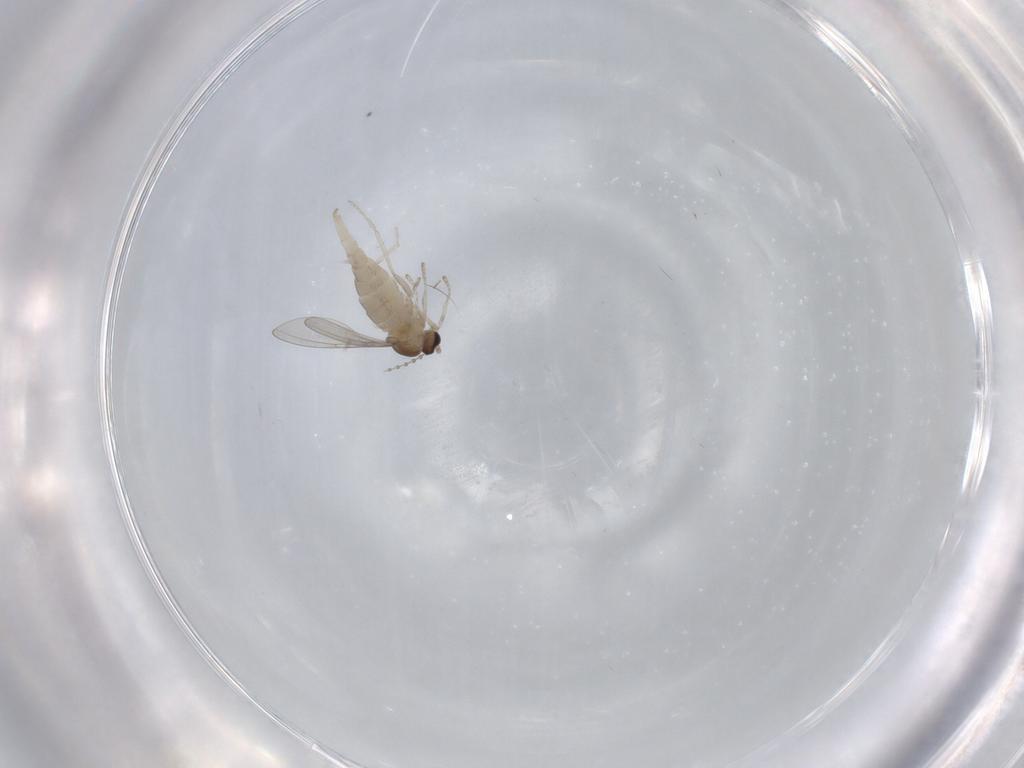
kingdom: Animalia
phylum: Arthropoda
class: Insecta
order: Diptera
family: Cecidomyiidae
